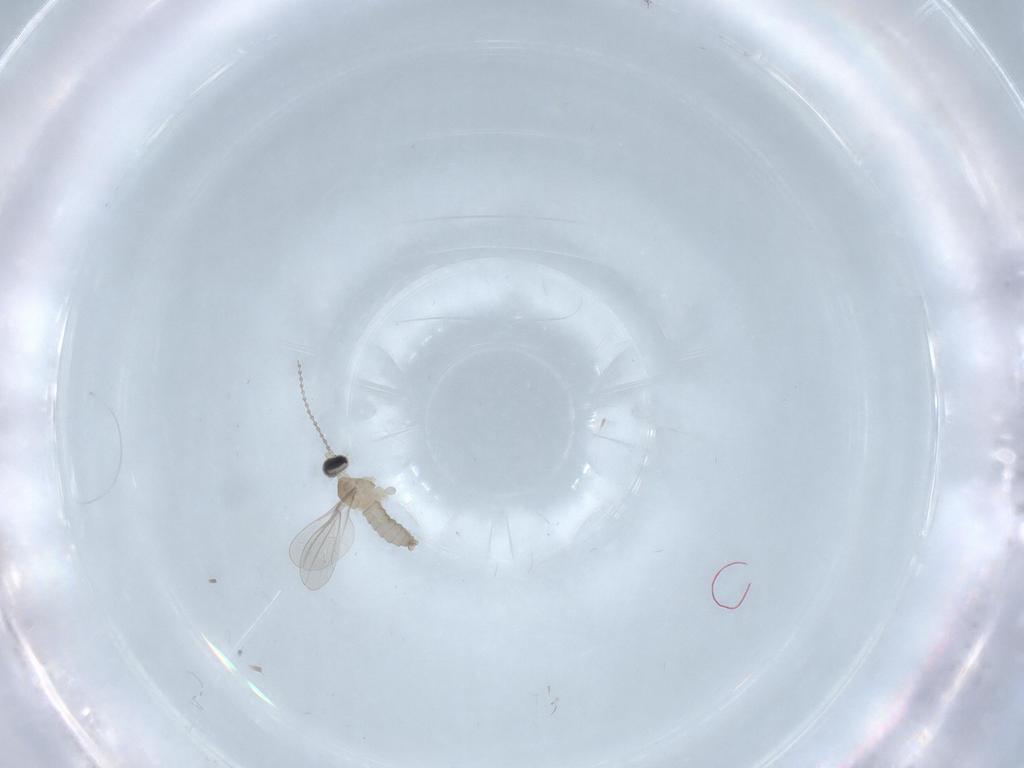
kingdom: Animalia
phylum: Arthropoda
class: Insecta
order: Diptera
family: Cecidomyiidae
